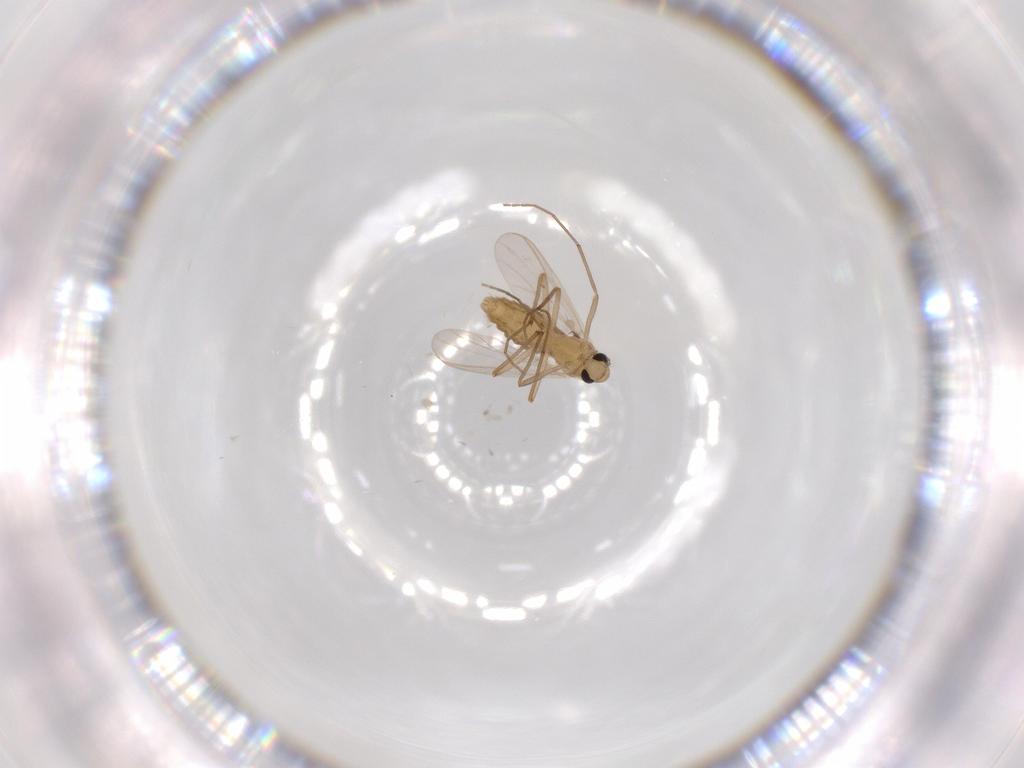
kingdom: Animalia
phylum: Arthropoda
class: Insecta
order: Diptera
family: Chironomidae
